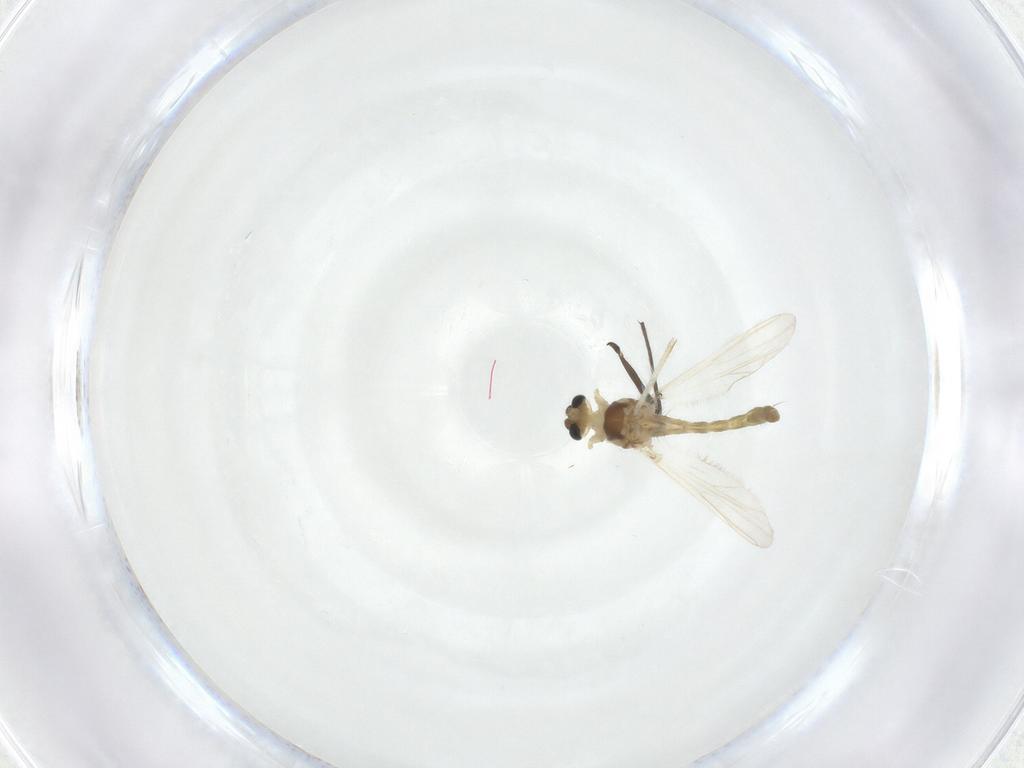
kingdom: Animalia
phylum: Arthropoda
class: Insecta
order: Diptera
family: Chironomidae
